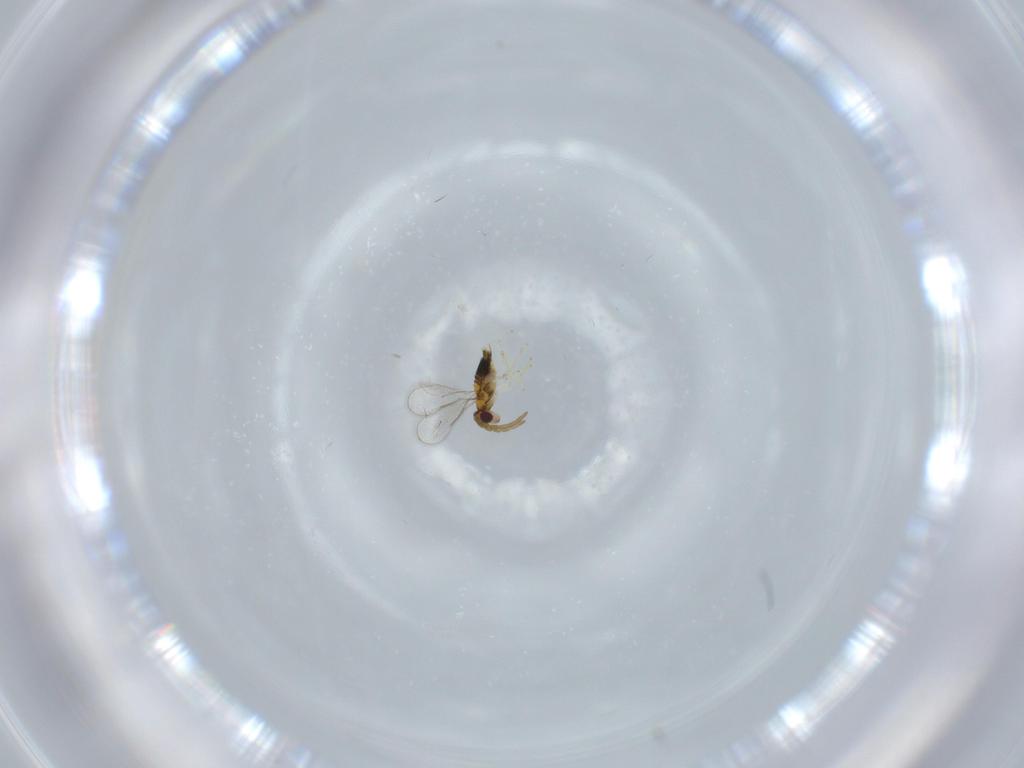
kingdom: Animalia
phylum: Arthropoda
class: Insecta
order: Hymenoptera
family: Aphelinidae
